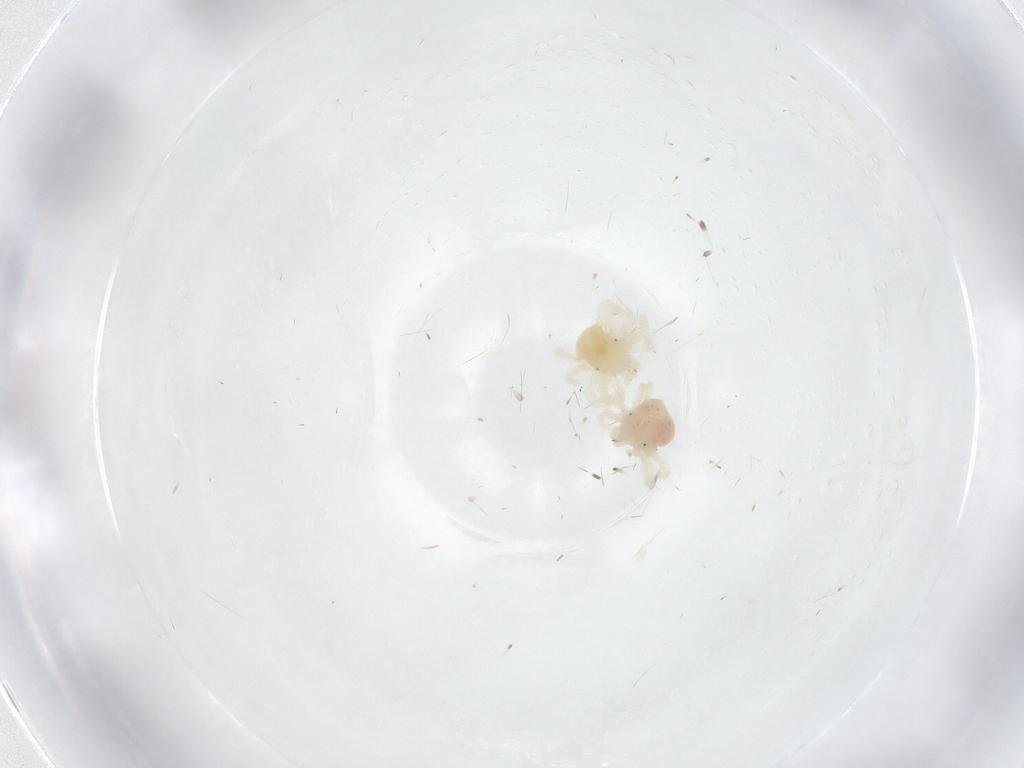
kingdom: Animalia
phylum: Arthropoda
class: Arachnida
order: Trombidiformes
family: Anystidae
